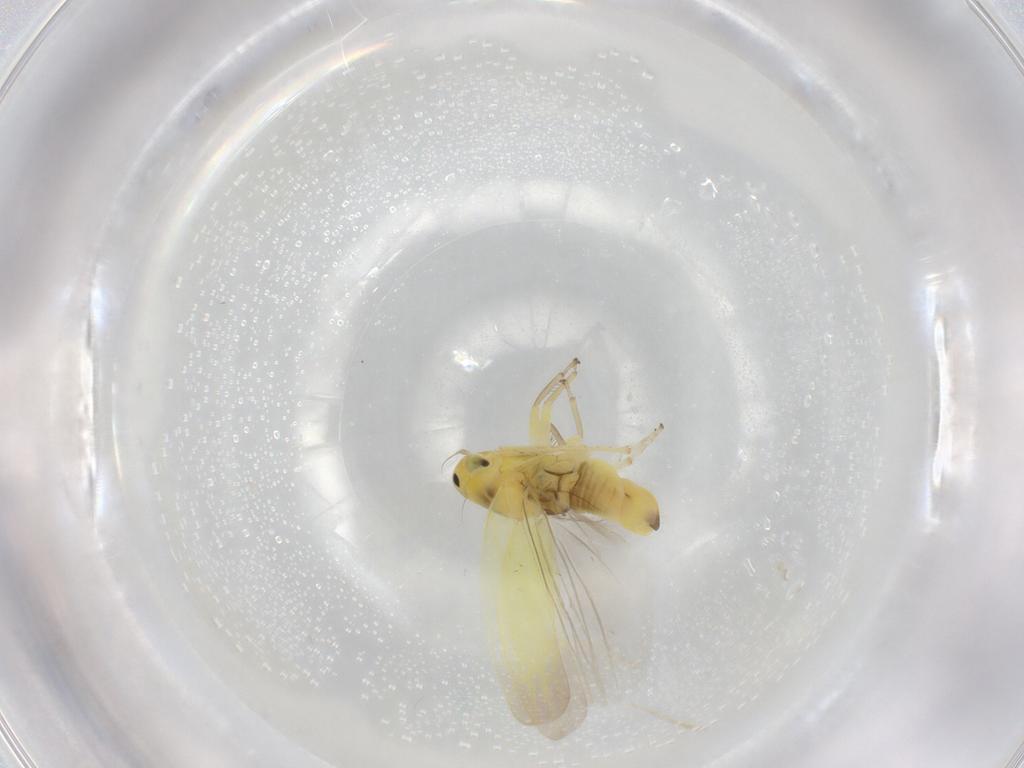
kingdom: Animalia
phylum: Arthropoda
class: Insecta
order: Hemiptera
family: Cicadellidae
